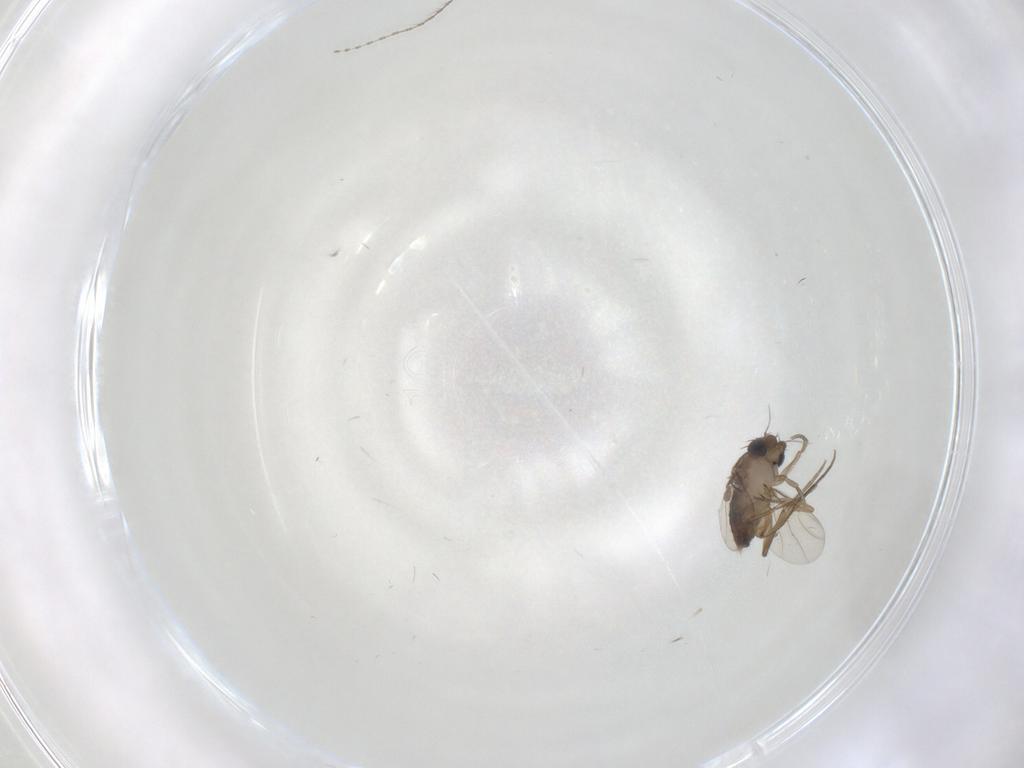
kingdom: Animalia
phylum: Arthropoda
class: Insecta
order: Diptera
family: Phoridae
